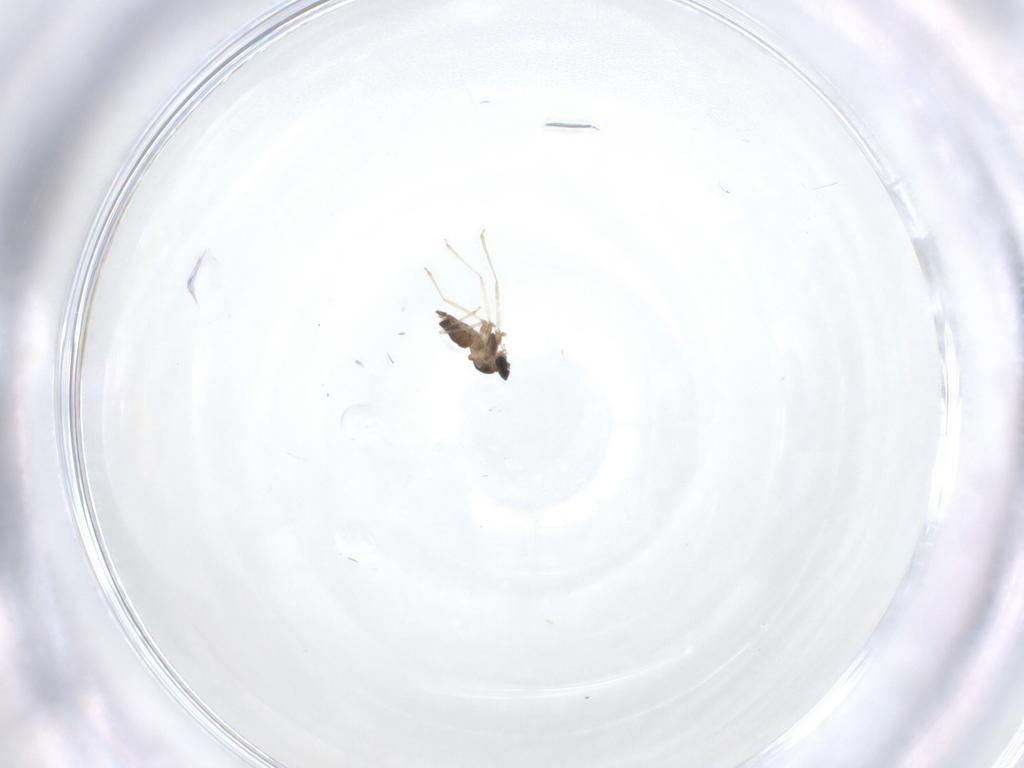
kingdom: Animalia
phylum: Arthropoda
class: Insecta
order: Diptera
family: Cecidomyiidae
